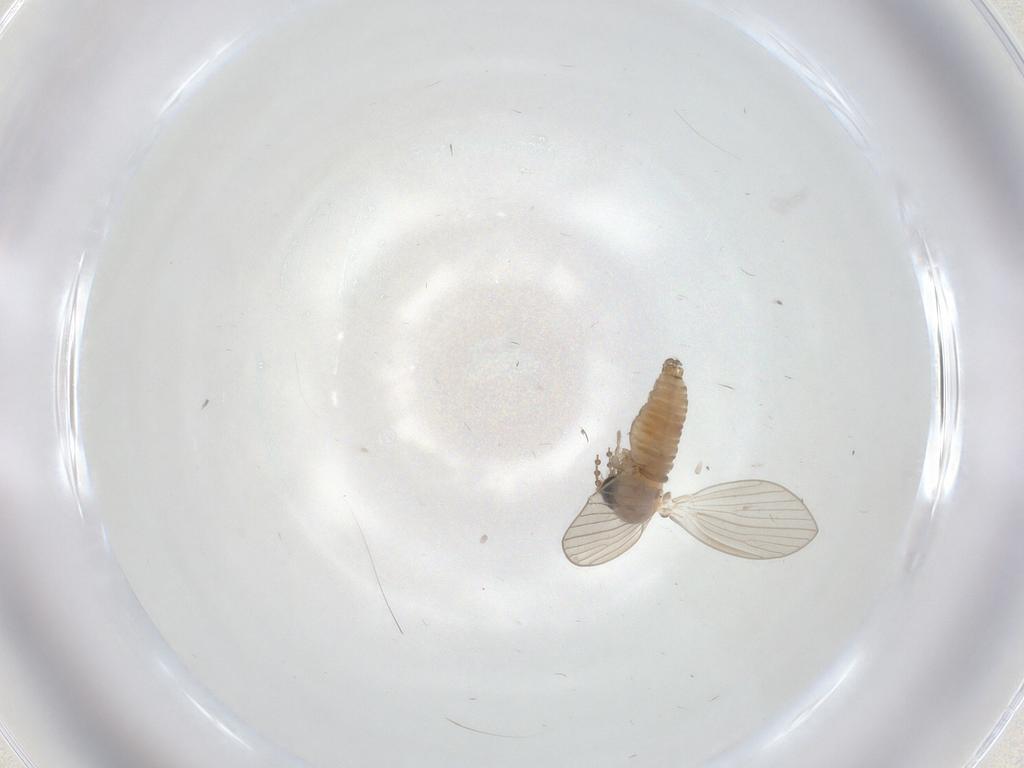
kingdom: Animalia
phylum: Arthropoda
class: Insecta
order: Diptera
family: Psychodidae
